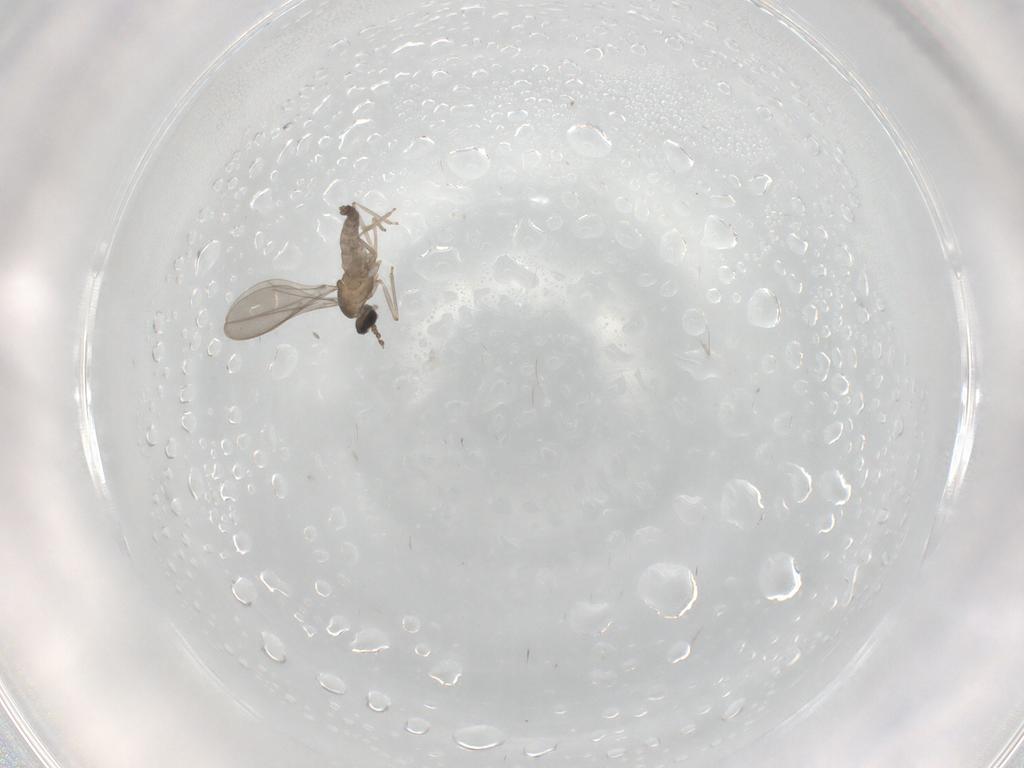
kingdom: Animalia
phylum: Arthropoda
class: Insecta
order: Diptera
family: Cecidomyiidae
